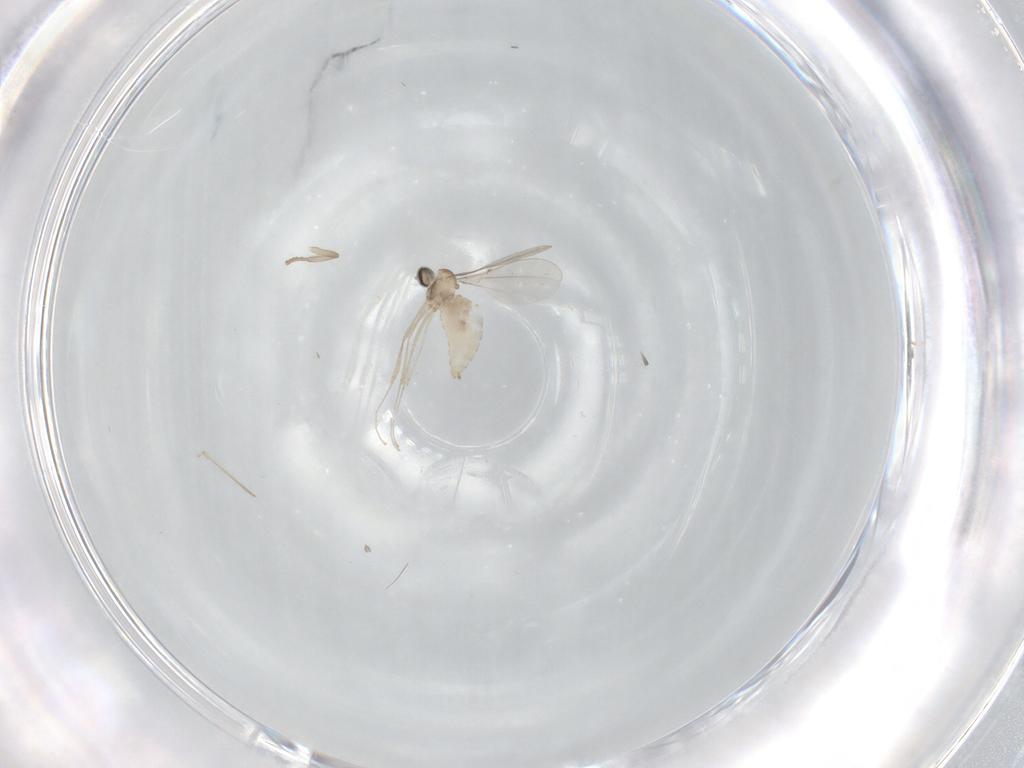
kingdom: Animalia
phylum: Arthropoda
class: Insecta
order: Diptera
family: Psychodidae
